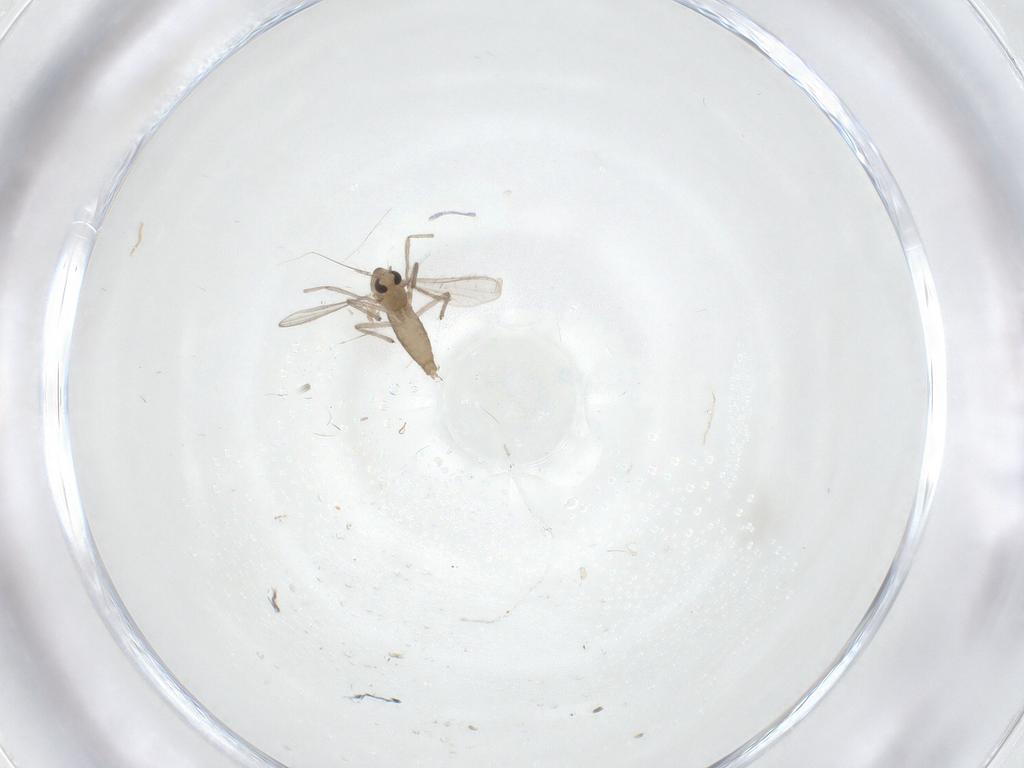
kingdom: Animalia
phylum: Arthropoda
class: Insecta
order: Diptera
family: Chironomidae
